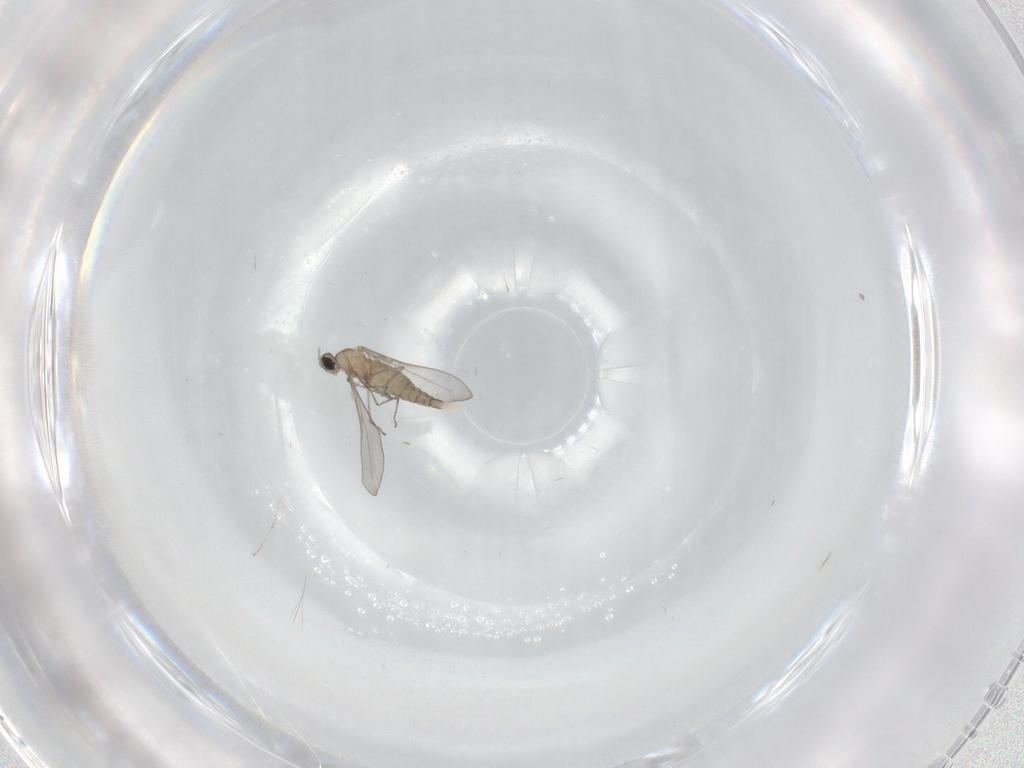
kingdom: Animalia
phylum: Arthropoda
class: Insecta
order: Diptera
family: Cecidomyiidae
